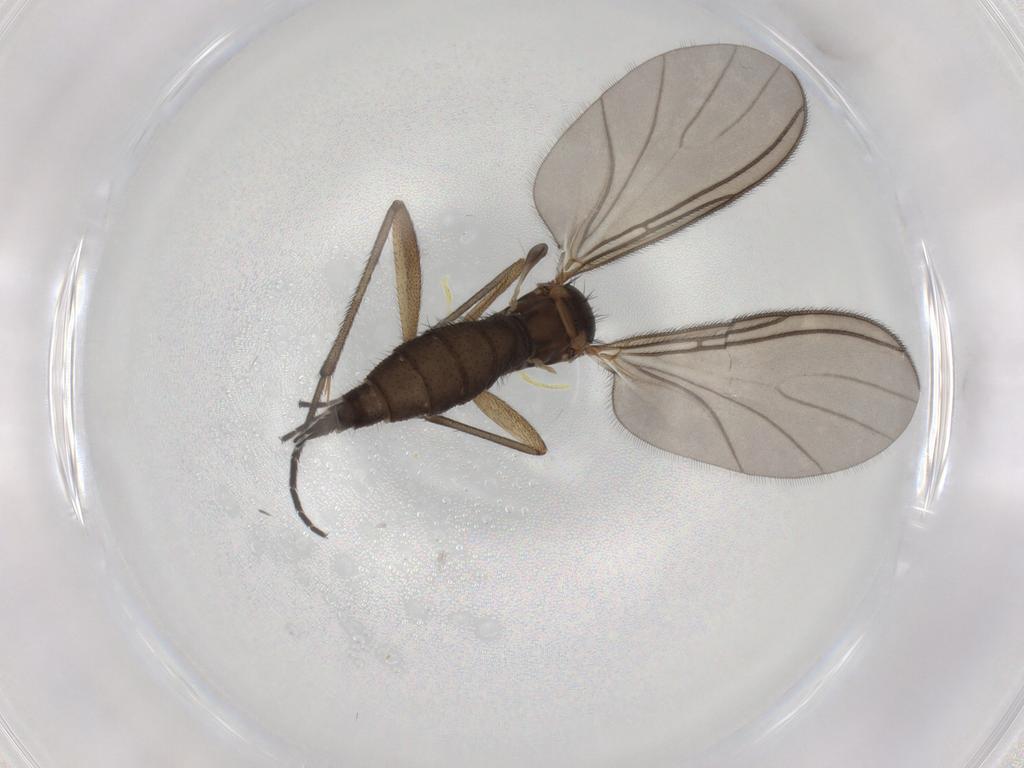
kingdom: Animalia
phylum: Arthropoda
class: Insecta
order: Diptera
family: Sciaridae
